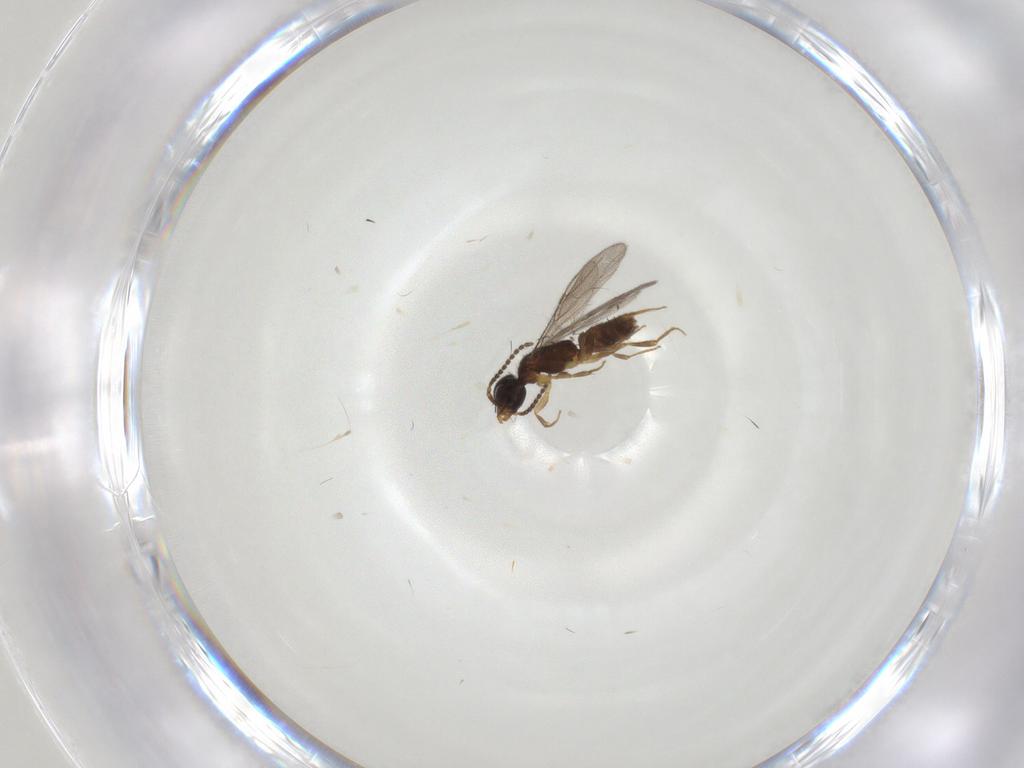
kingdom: Animalia
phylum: Arthropoda
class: Insecta
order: Hymenoptera
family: Bethylidae
